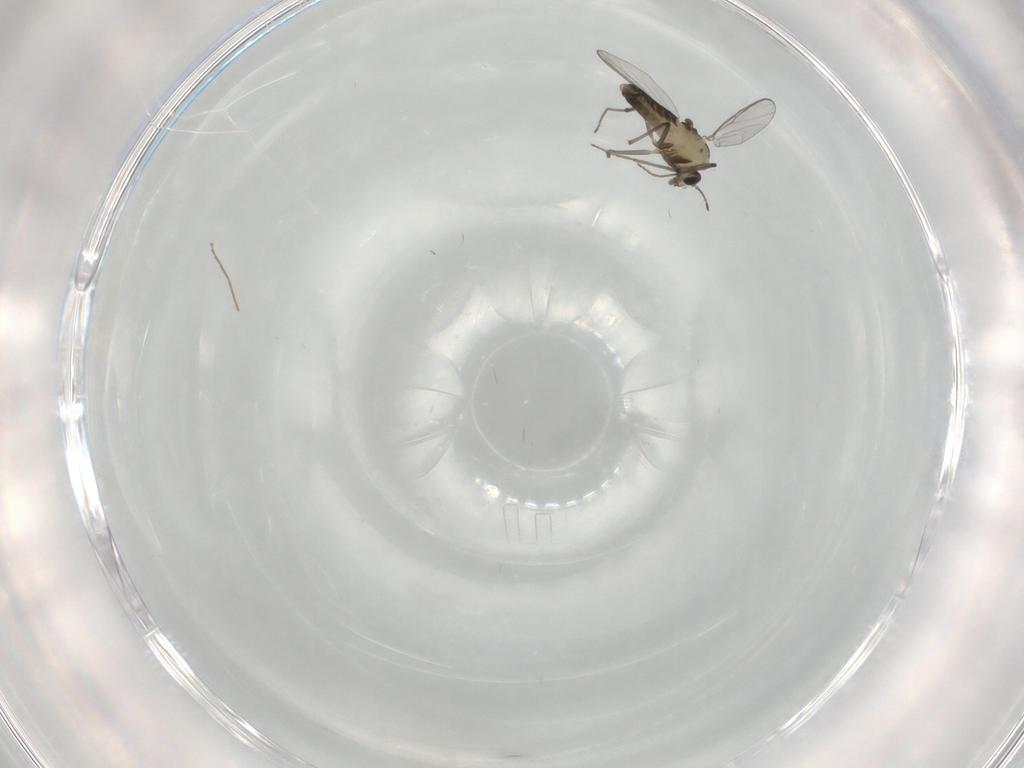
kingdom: Animalia
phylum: Arthropoda
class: Insecta
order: Diptera
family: Chironomidae
